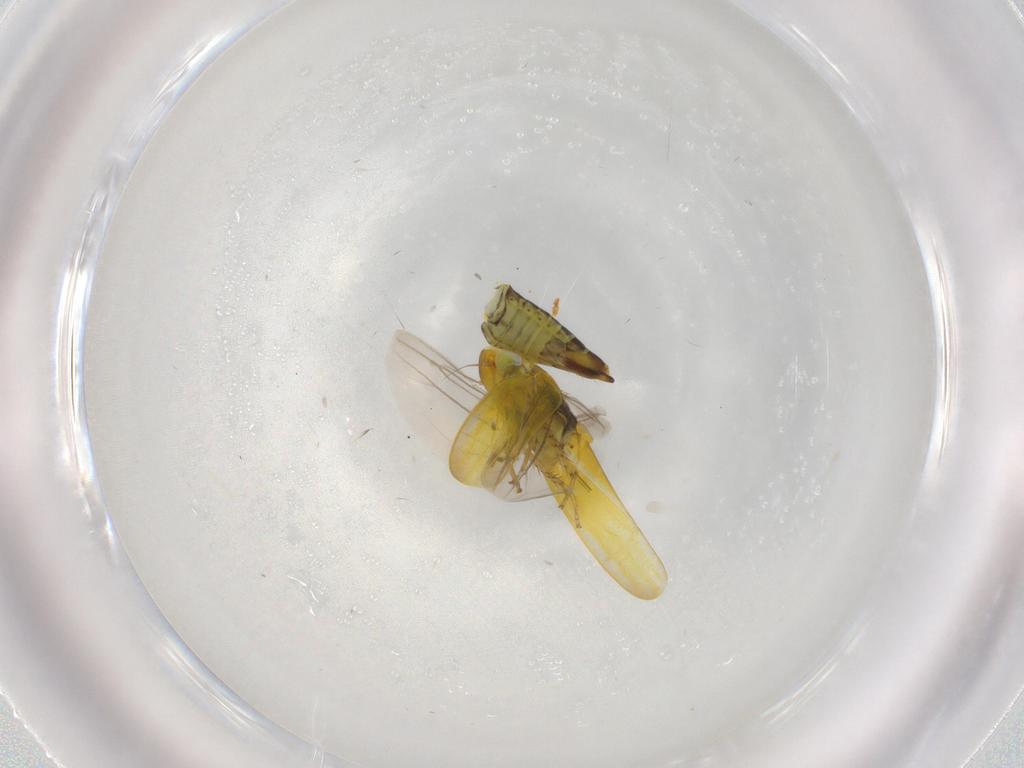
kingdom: Animalia
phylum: Arthropoda
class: Insecta
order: Hemiptera
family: Cicadellidae
